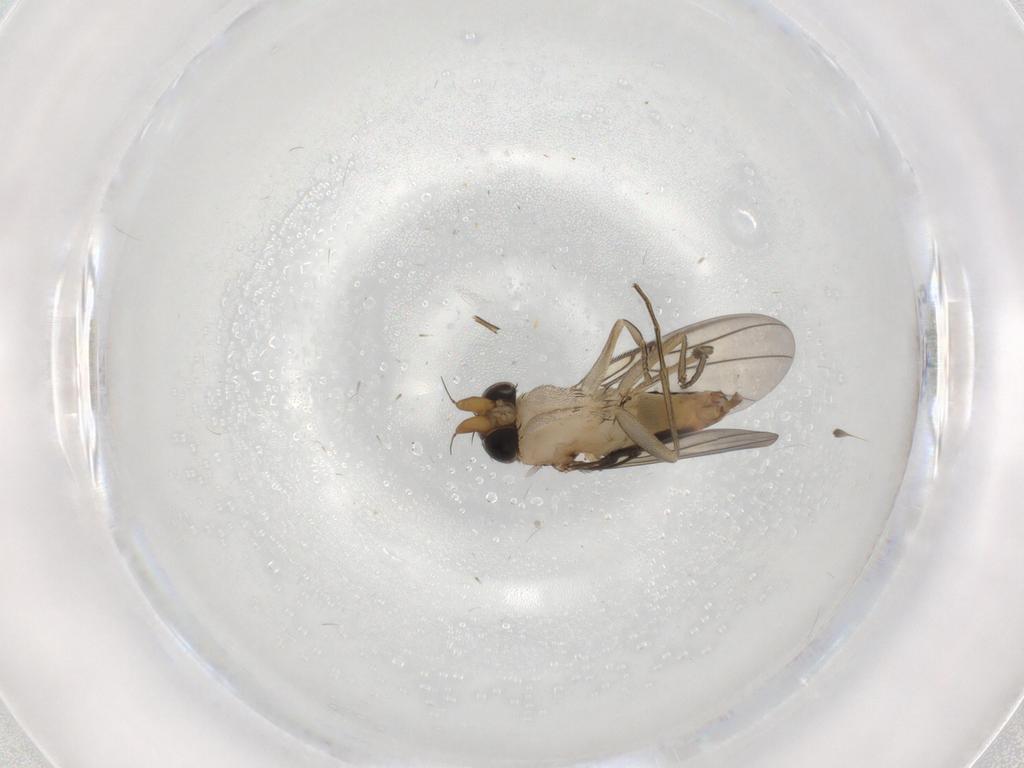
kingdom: Animalia
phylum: Arthropoda
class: Insecta
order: Diptera
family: Phoridae
